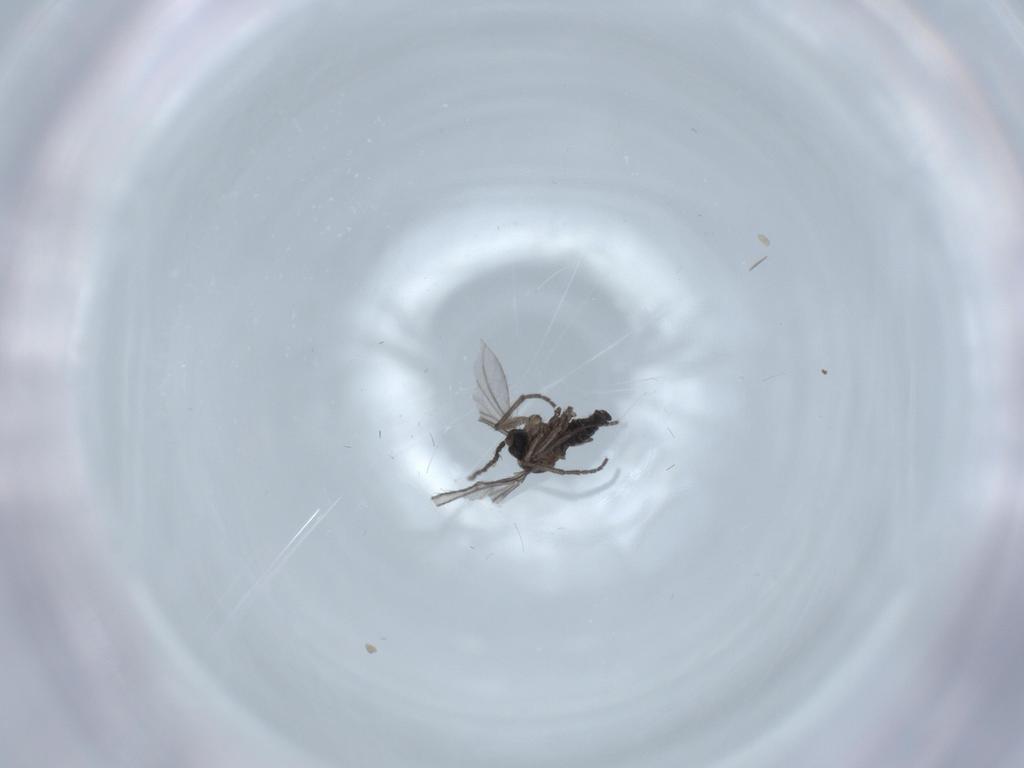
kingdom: Animalia
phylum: Arthropoda
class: Insecta
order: Diptera
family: Sciaridae
